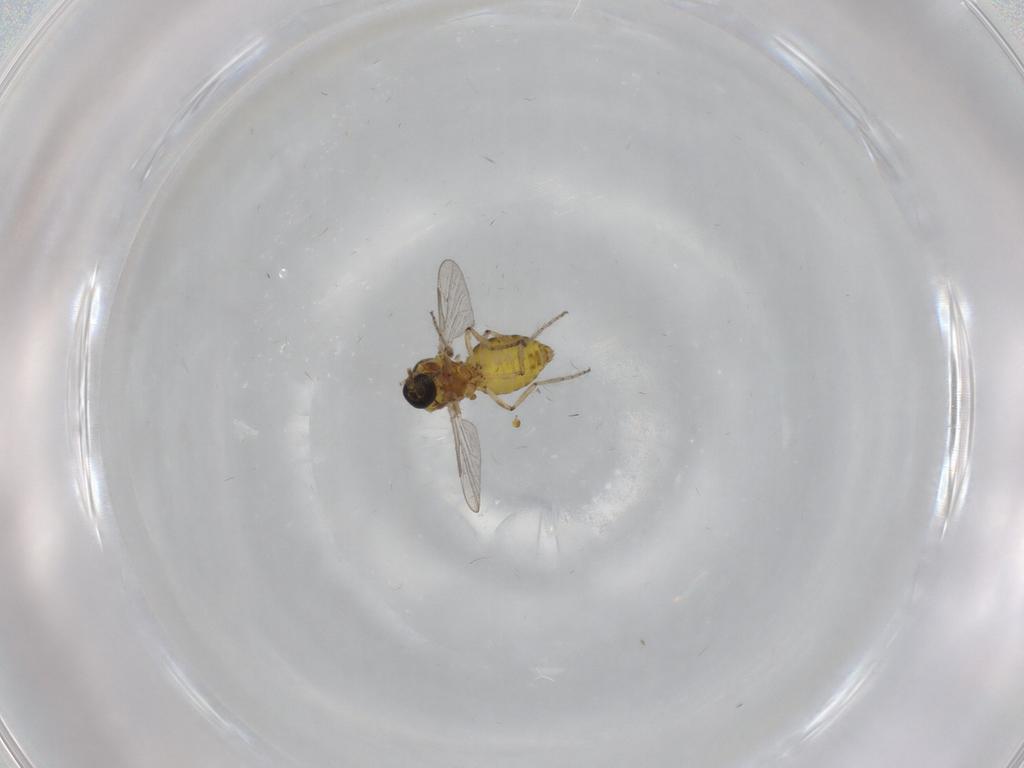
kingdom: Animalia
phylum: Arthropoda
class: Insecta
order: Diptera
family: Ceratopogonidae
